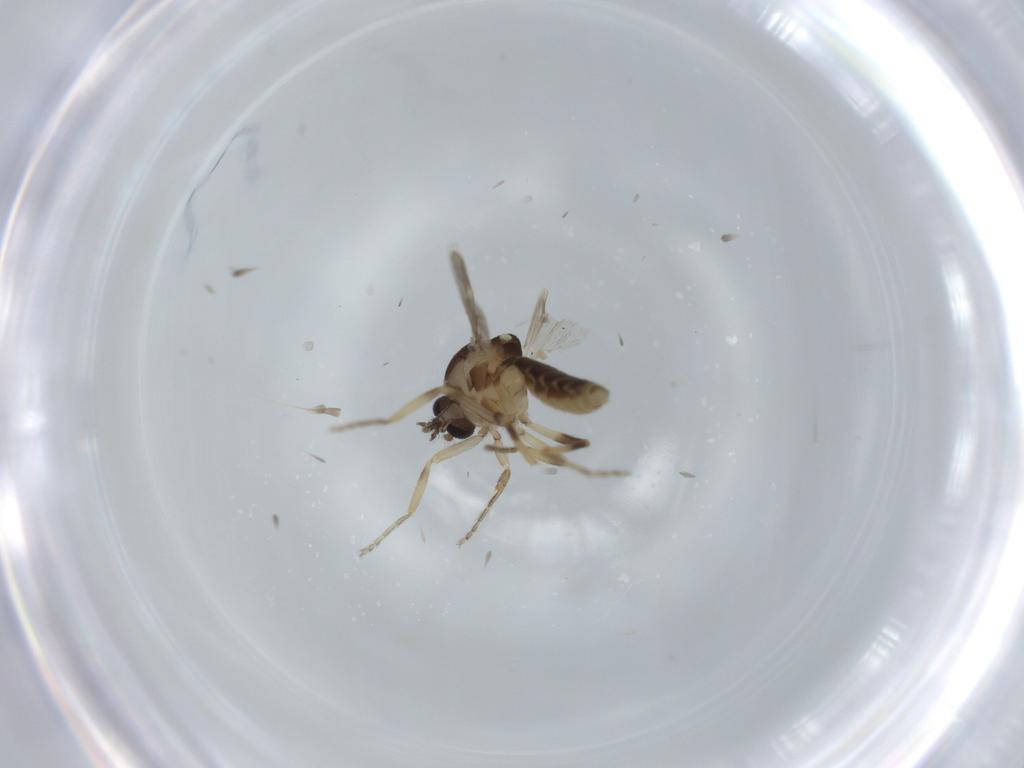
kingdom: Animalia
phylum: Arthropoda
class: Insecta
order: Diptera
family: Ceratopogonidae
